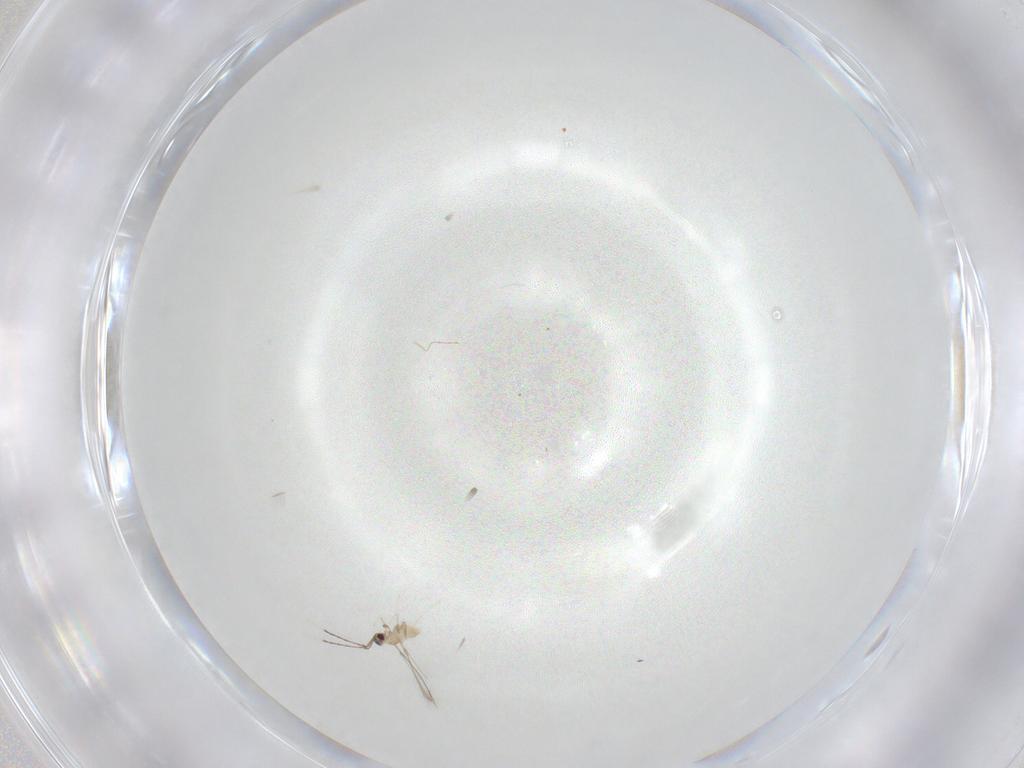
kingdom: Animalia
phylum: Arthropoda
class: Insecta
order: Hymenoptera
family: Mymaridae
